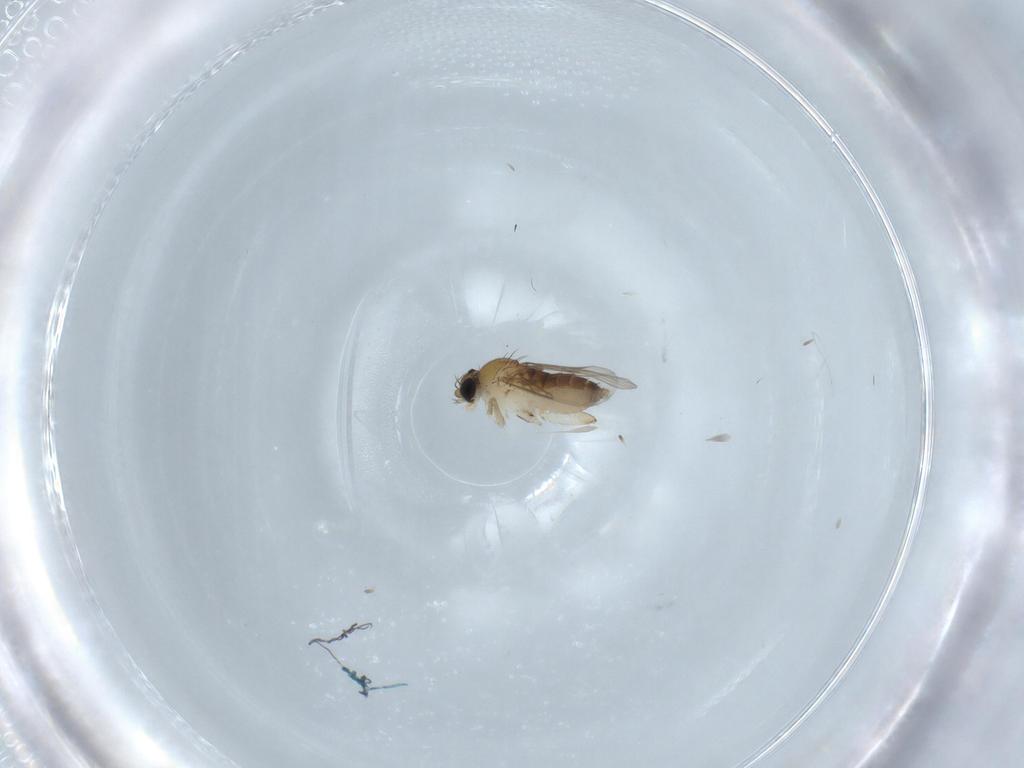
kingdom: Animalia
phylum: Arthropoda
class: Insecta
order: Diptera
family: Phoridae
